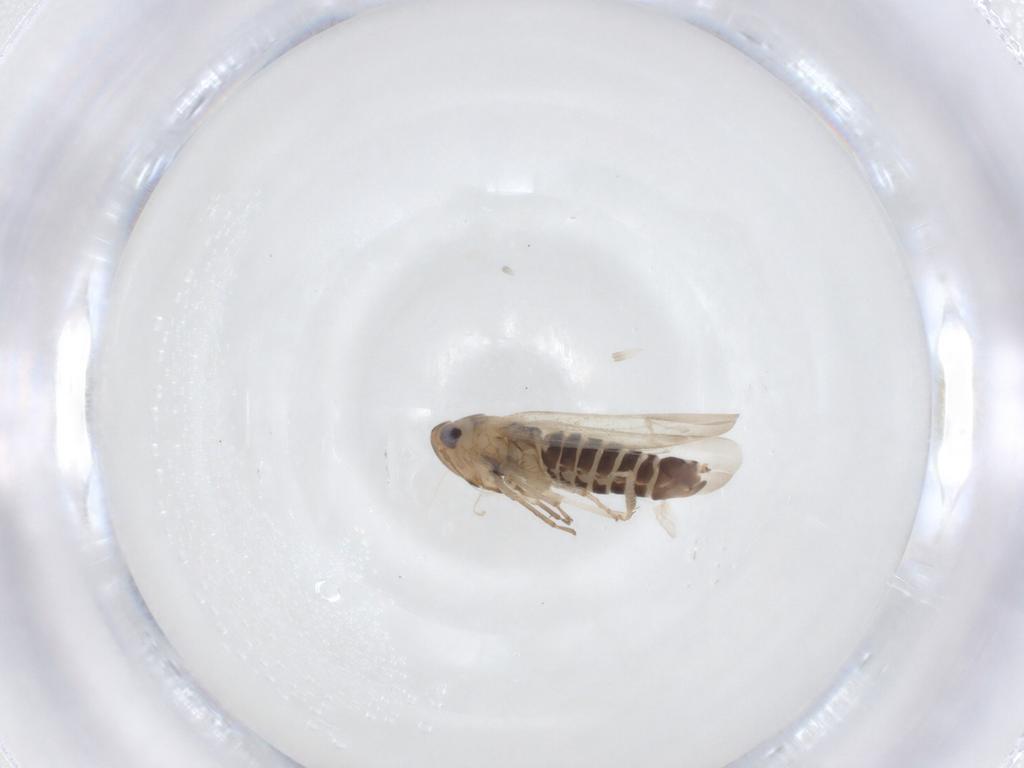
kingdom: Animalia
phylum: Arthropoda
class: Insecta
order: Hemiptera
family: Cicadellidae
